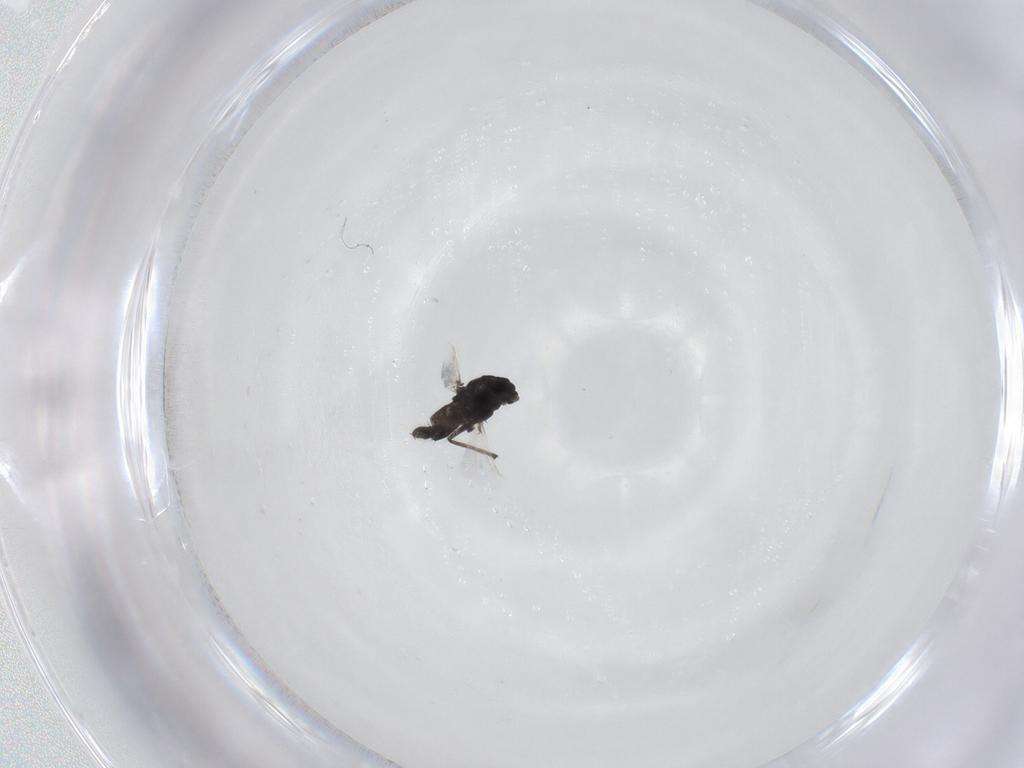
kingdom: Animalia
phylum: Arthropoda
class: Insecta
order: Diptera
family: Chironomidae
